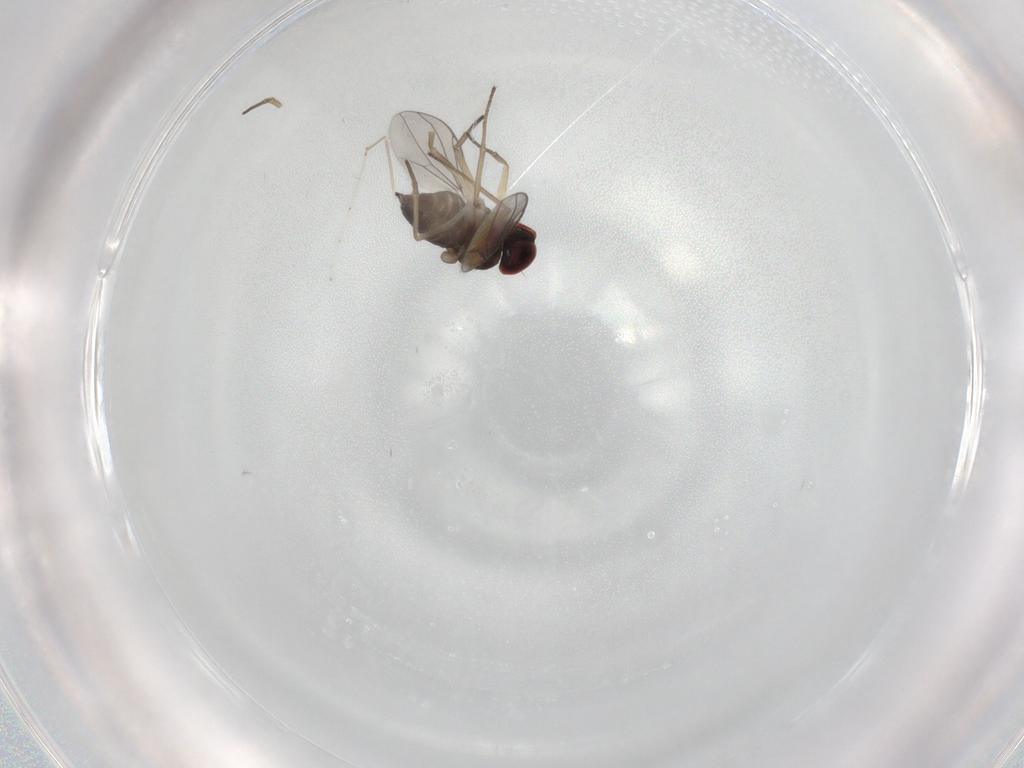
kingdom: Animalia
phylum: Arthropoda
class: Insecta
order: Diptera
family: Dolichopodidae
